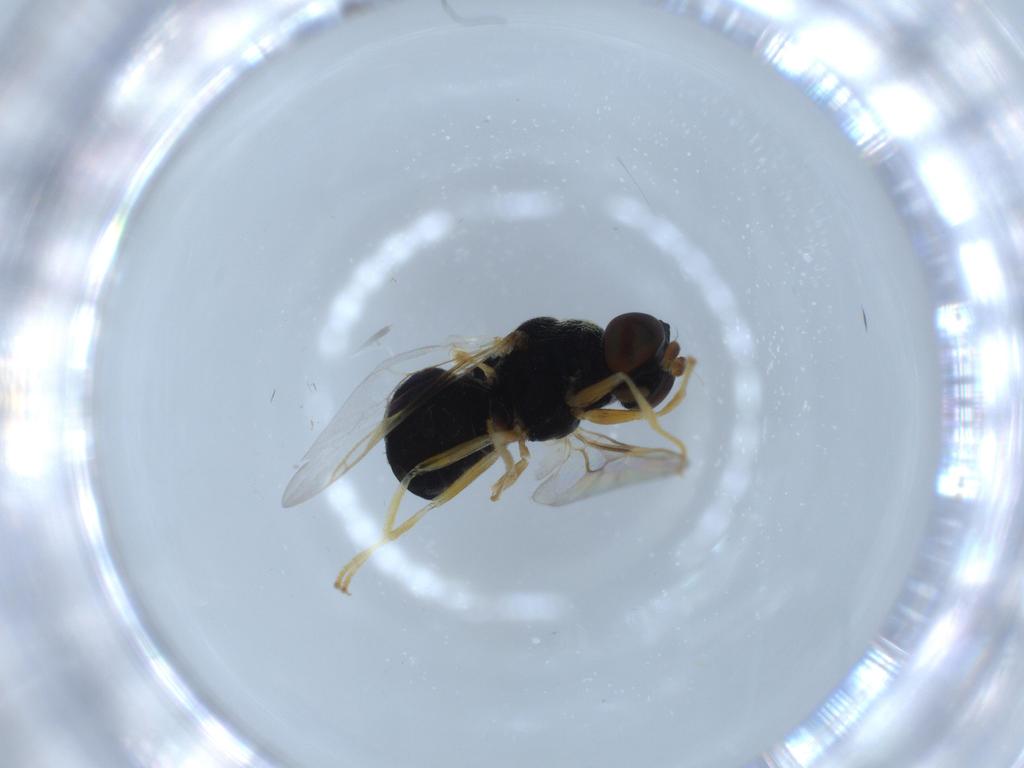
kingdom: Animalia
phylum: Arthropoda
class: Insecta
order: Diptera
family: Stratiomyidae
